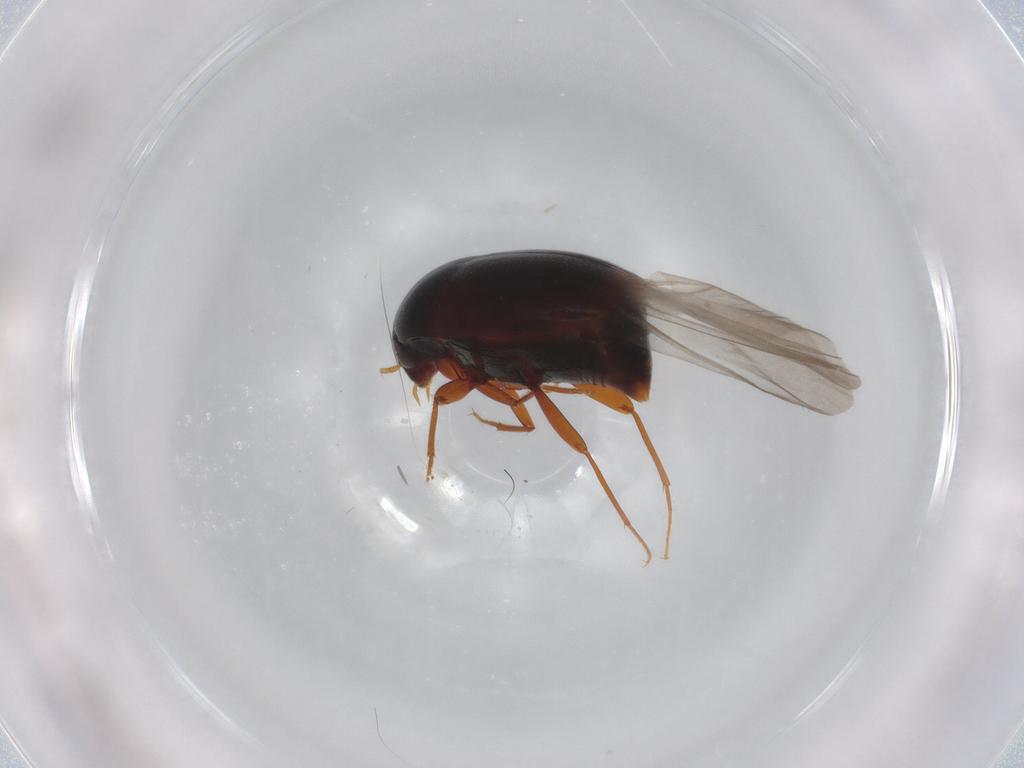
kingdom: Animalia
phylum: Arthropoda
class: Insecta
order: Coleoptera
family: Staphylinidae
